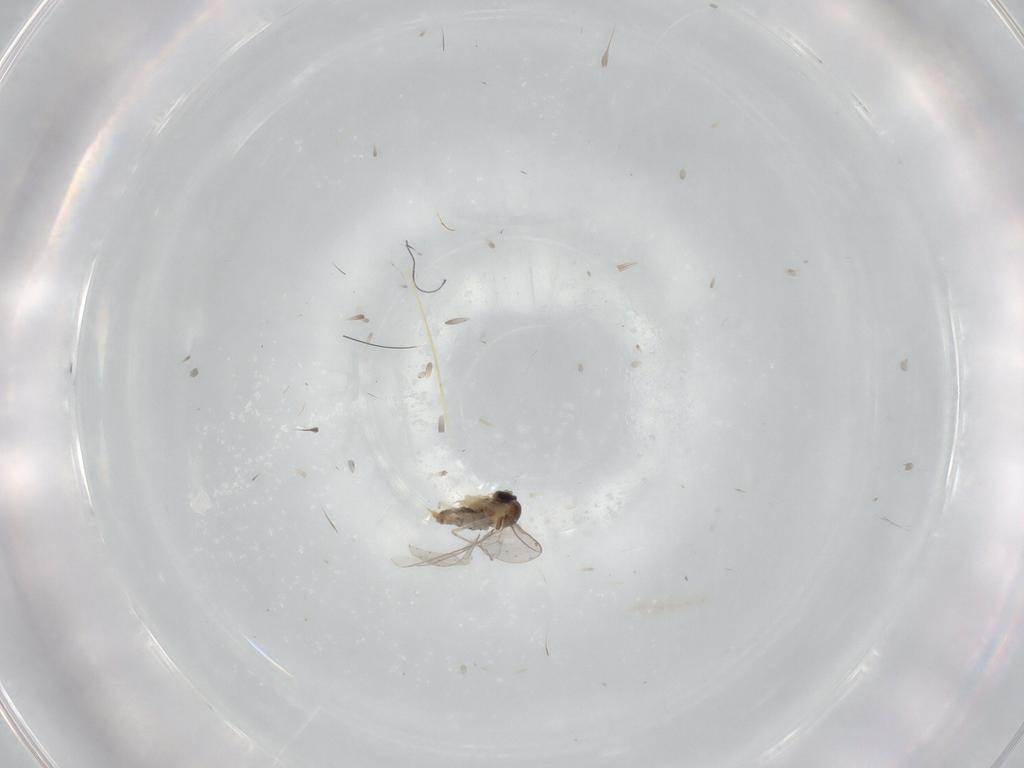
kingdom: Animalia
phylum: Arthropoda
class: Insecta
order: Diptera
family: Cecidomyiidae
